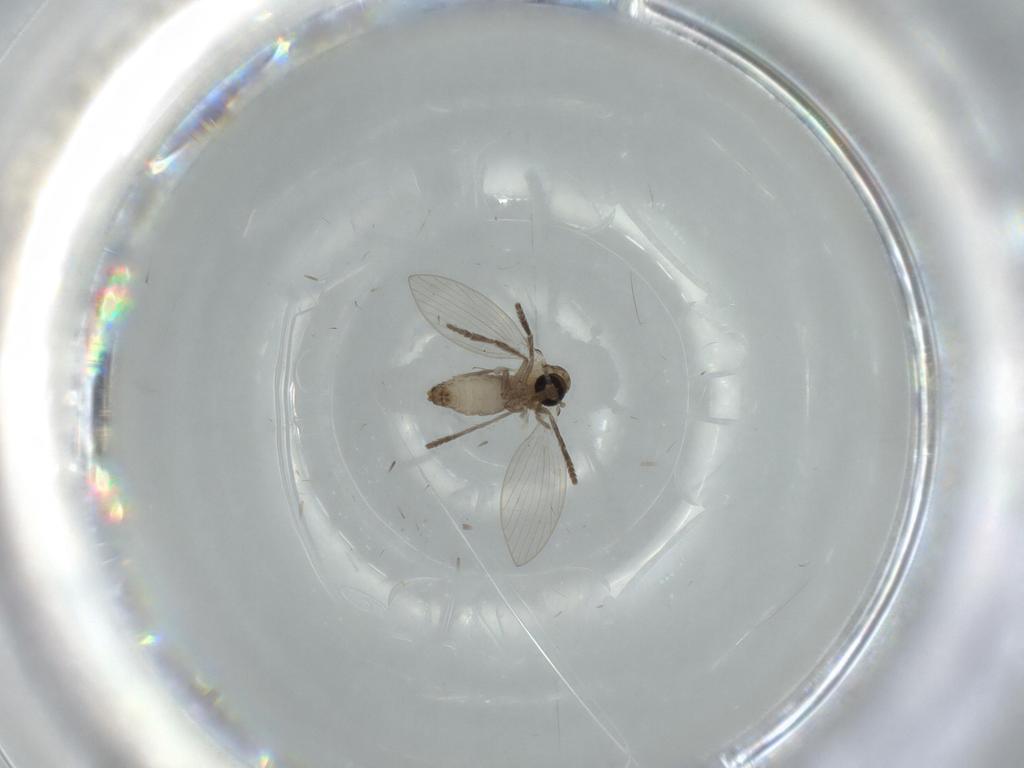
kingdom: Animalia
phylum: Arthropoda
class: Insecta
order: Diptera
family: Psychodidae
